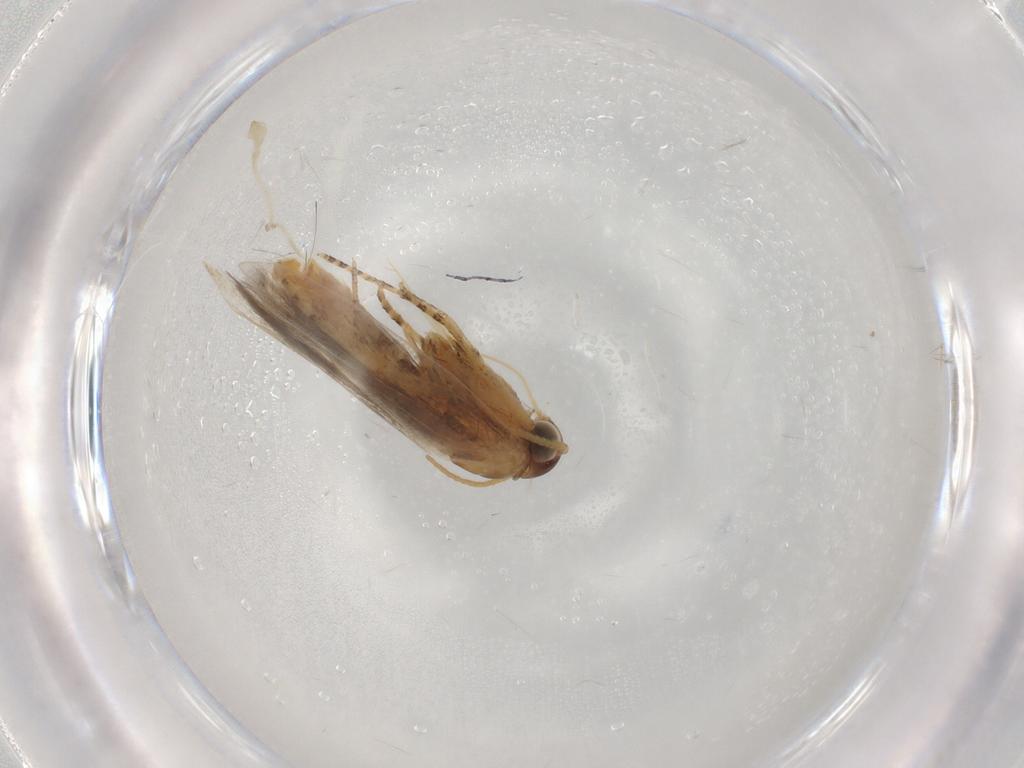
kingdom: Animalia
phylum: Arthropoda
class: Insecta
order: Lepidoptera
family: Plutellidae
